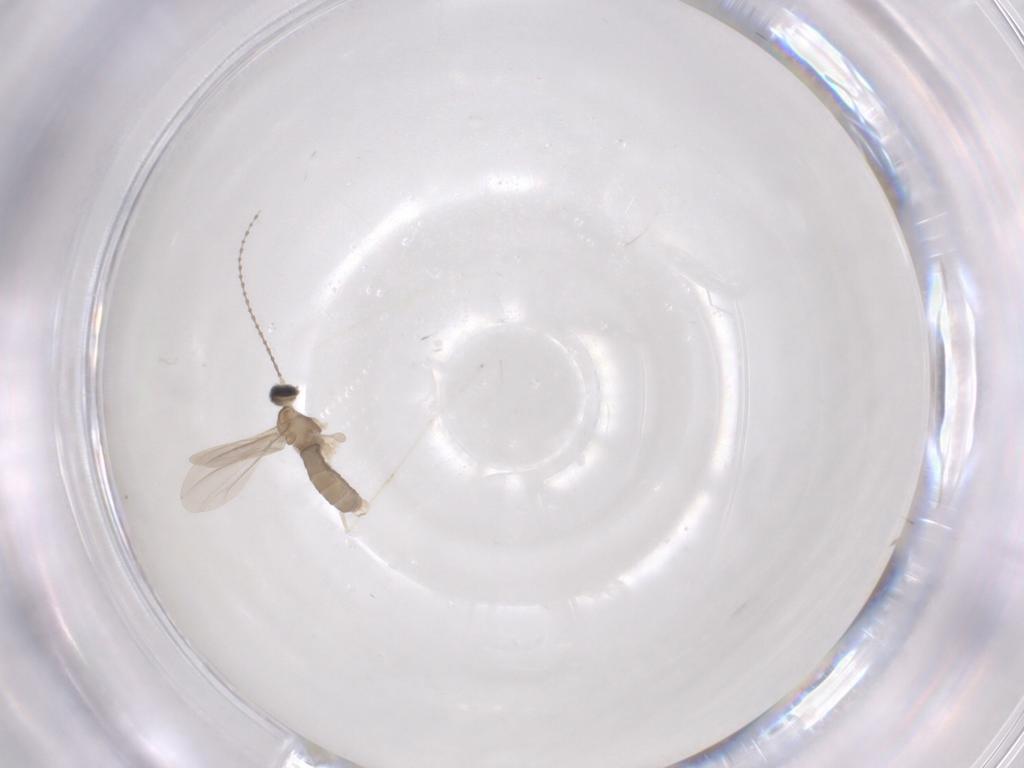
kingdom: Animalia
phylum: Arthropoda
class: Insecta
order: Diptera
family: Cecidomyiidae
